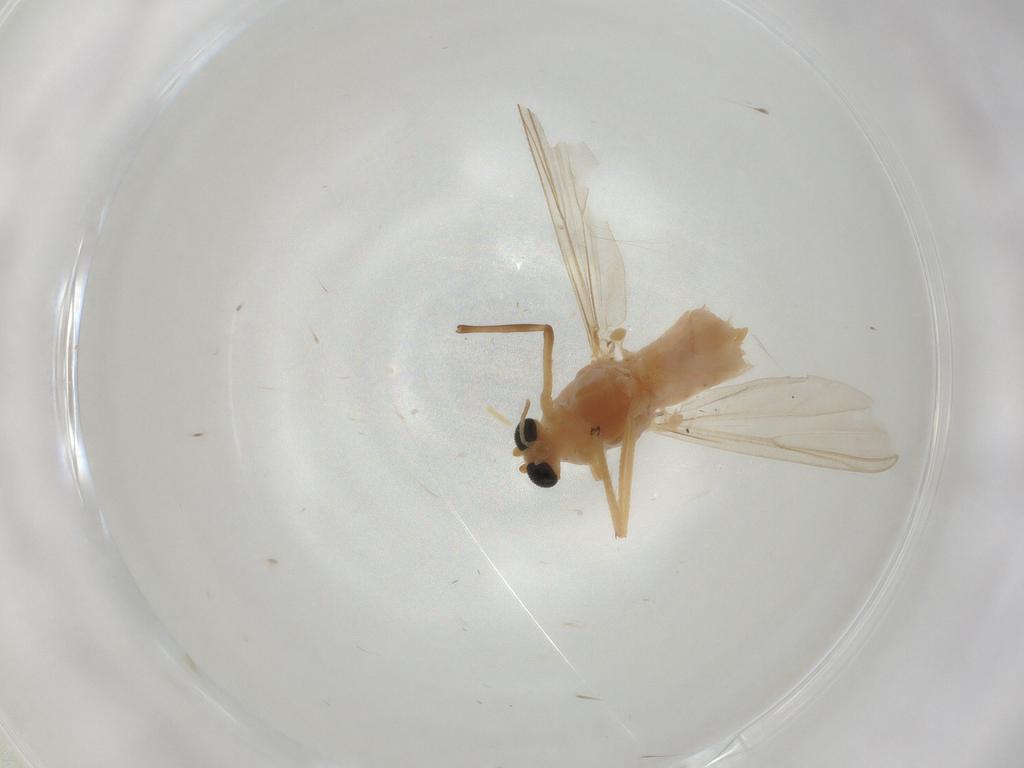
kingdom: Animalia
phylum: Arthropoda
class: Insecta
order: Diptera
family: Chironomidae
